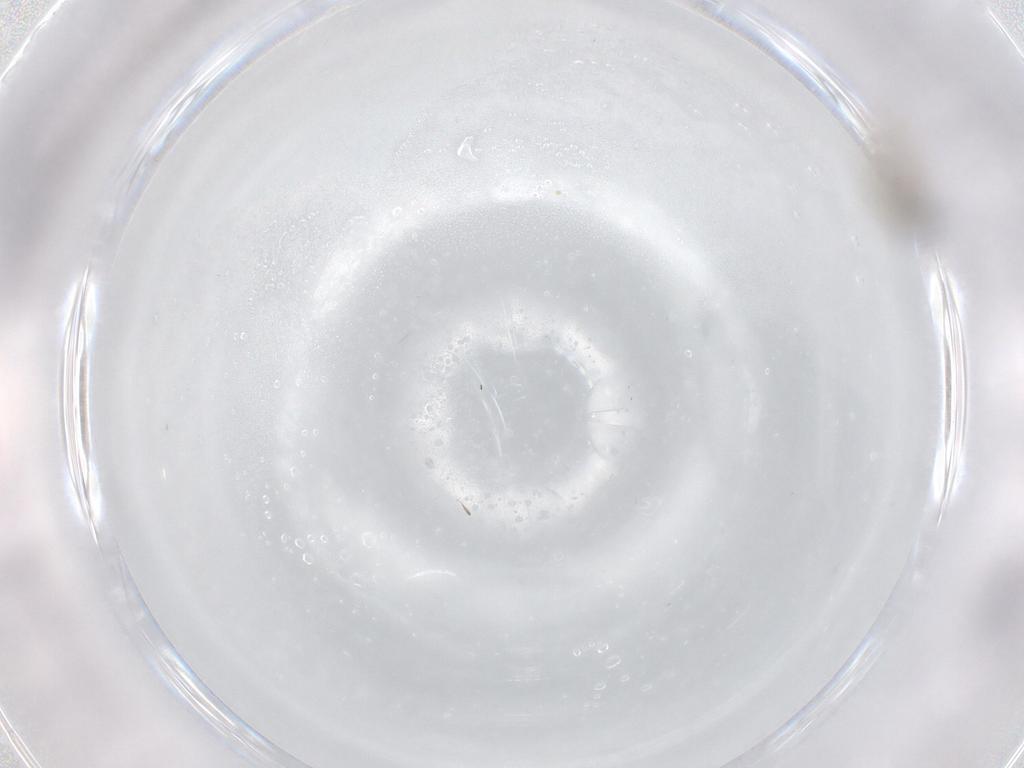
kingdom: Animalia
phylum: Arthropoda
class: Insecta
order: Diptera
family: Cecidomyiidae
